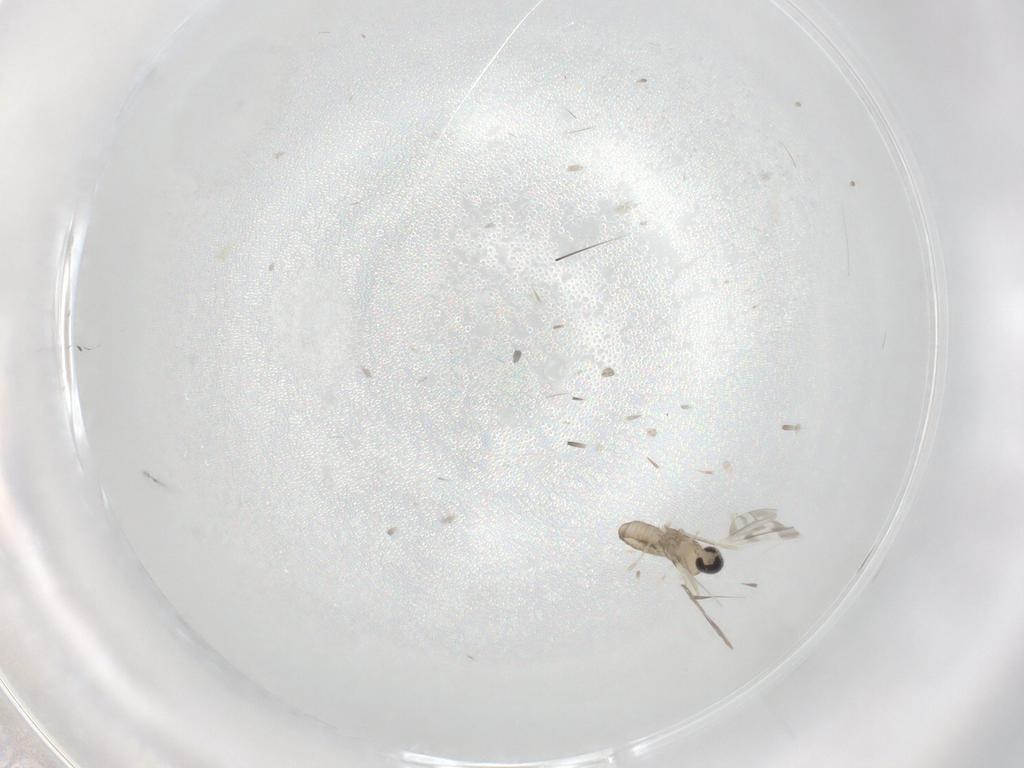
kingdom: Animalia
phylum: Arthropoda
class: Insecta
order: Diptera
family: Cecidomyiidae
